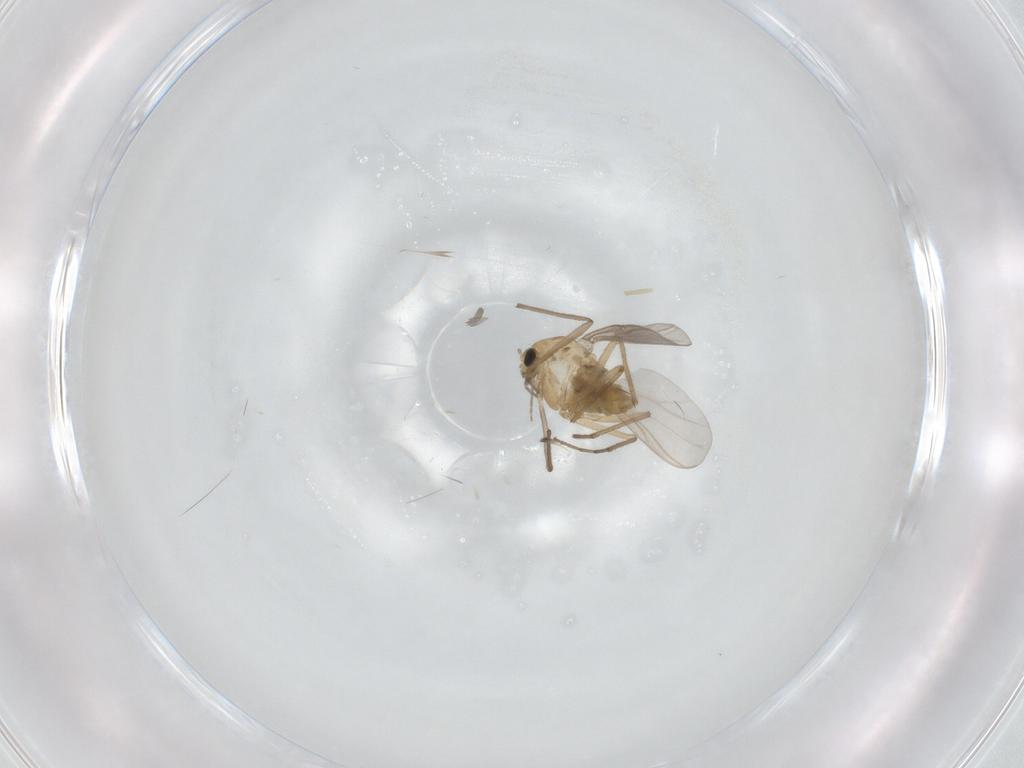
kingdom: Animalia
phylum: Arthropoda
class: Insecta
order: Diptera
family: Chironomidae
